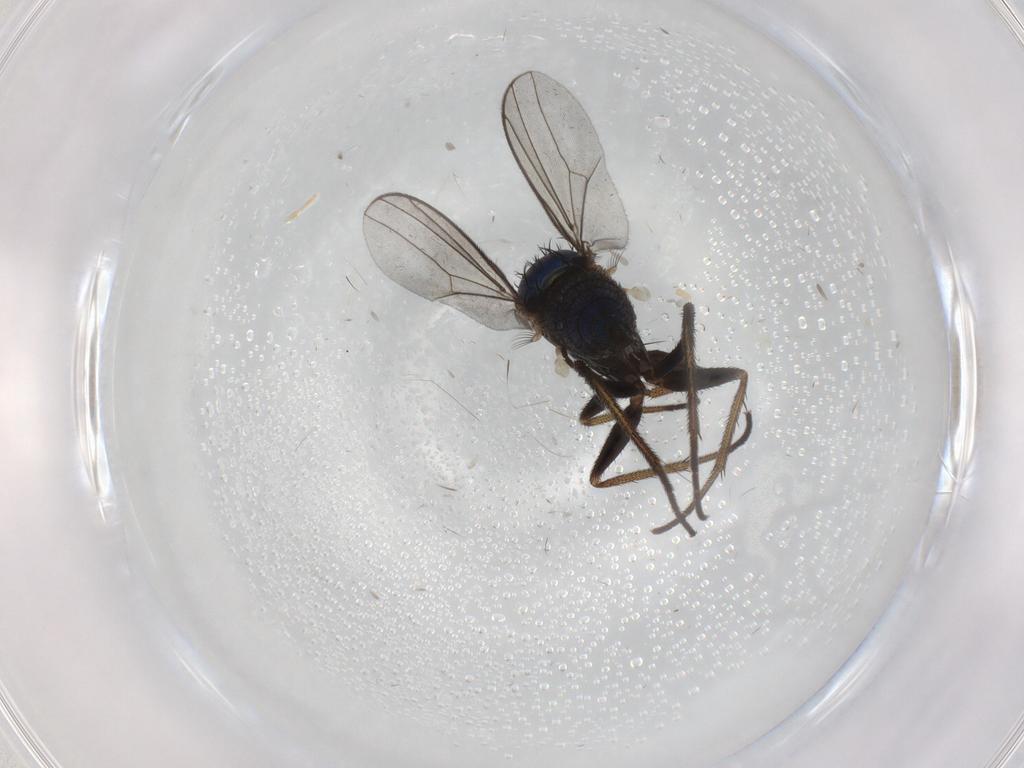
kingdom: Animalia
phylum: Arthropoda
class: Insecta
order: Diptera
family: Dolichopodidae
